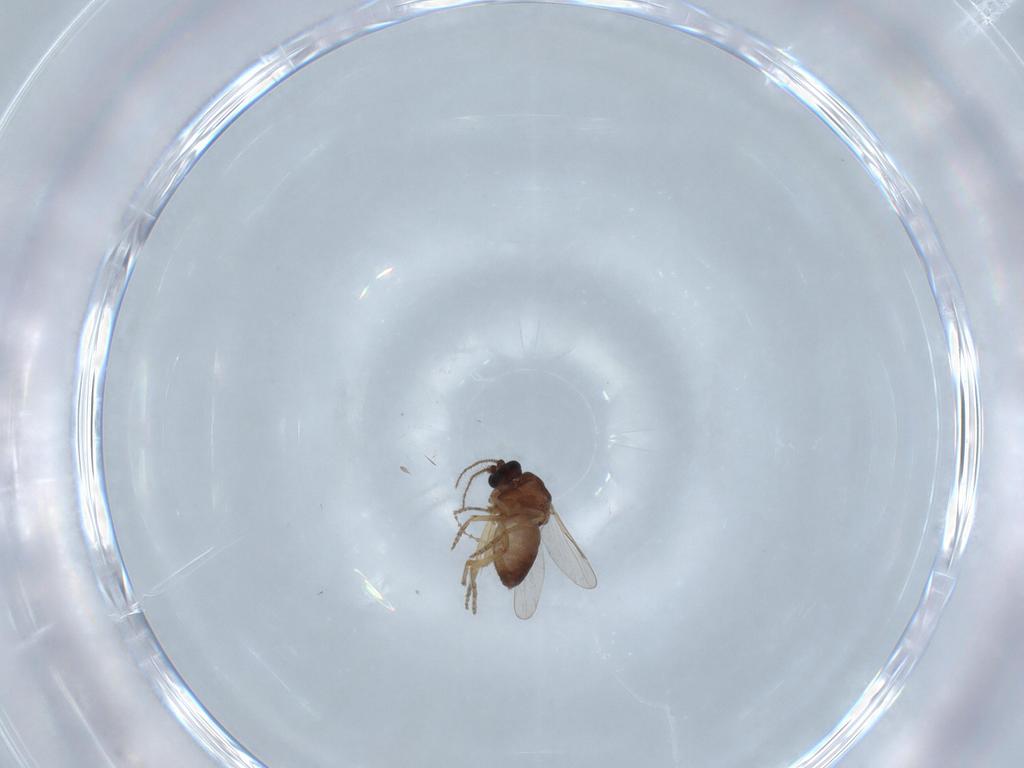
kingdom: Animalia
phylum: Arthropoda
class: Insecta
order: Diptera
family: Ceratopogonidae
